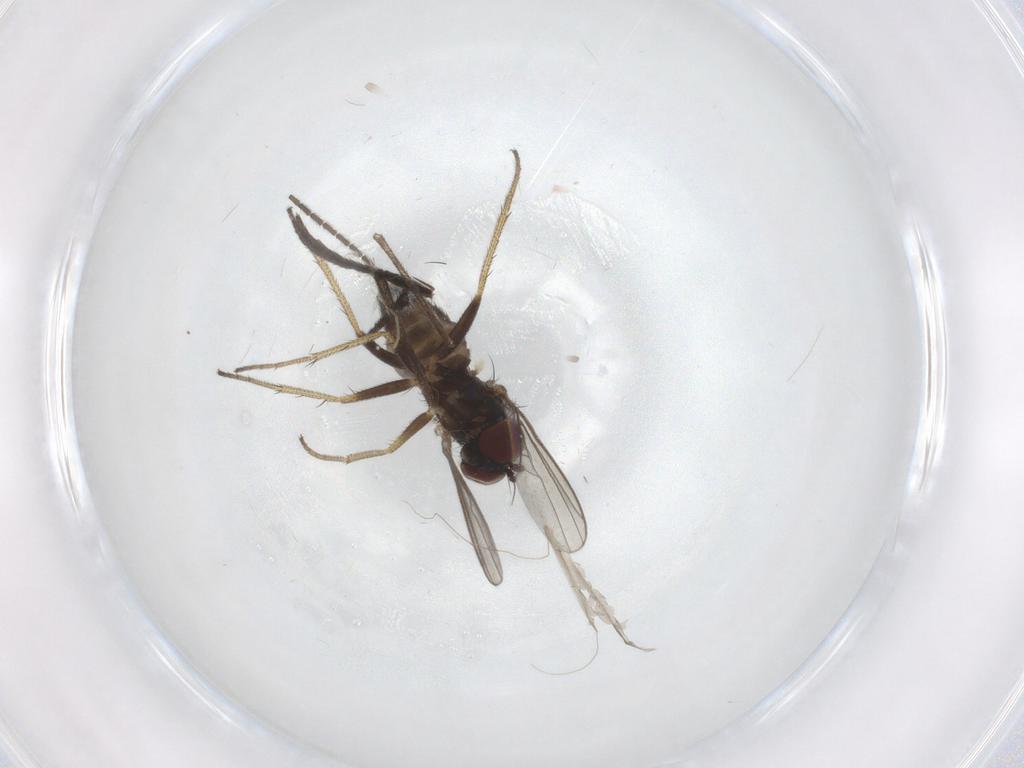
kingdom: Animalia
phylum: Arthropoda
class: Insecta
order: Diptera
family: Sciaridae
